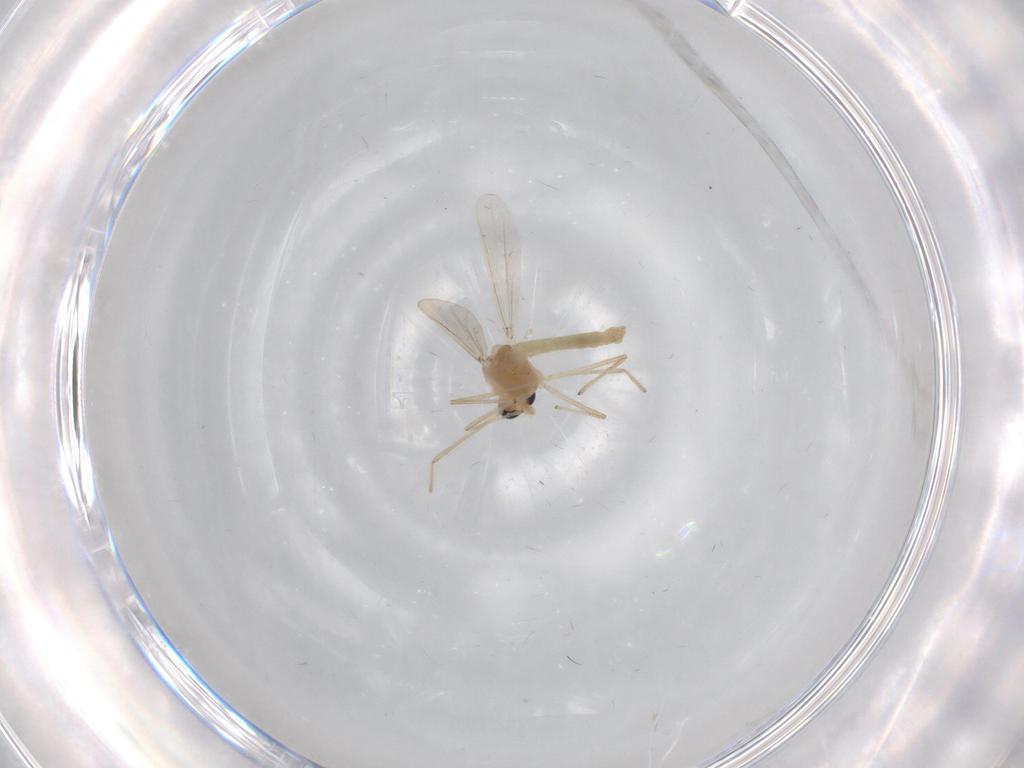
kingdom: Animalia
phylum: Arthropoda
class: Insecta
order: Diptera
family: Chironomidae
